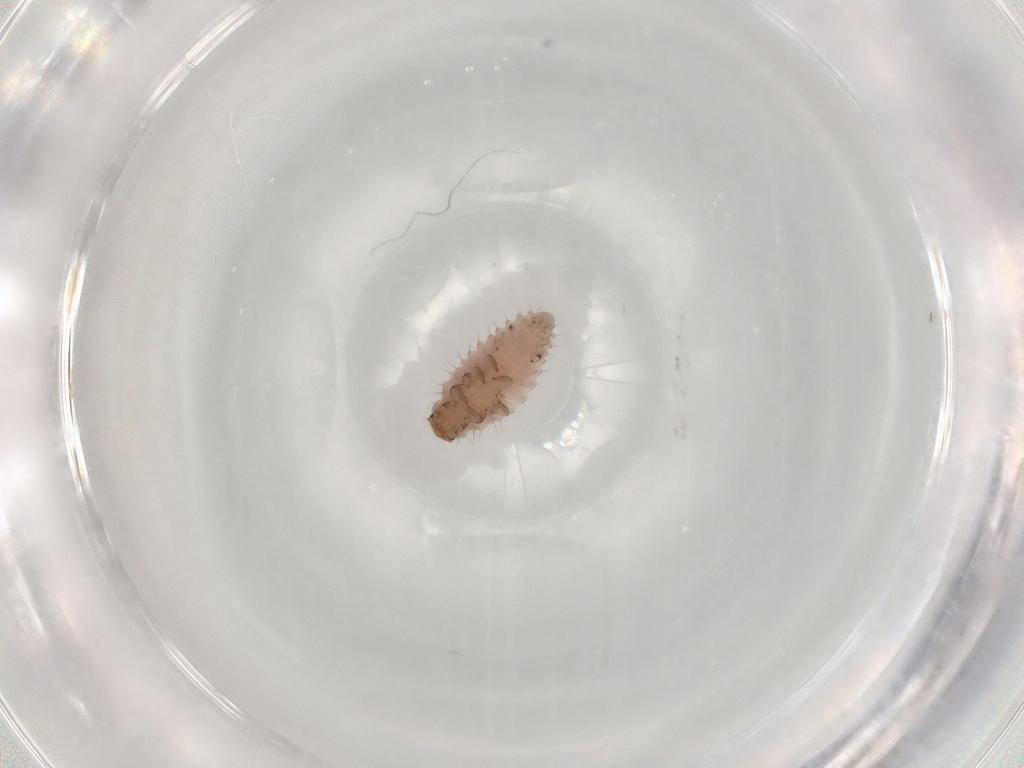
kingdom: Animalia
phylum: Arthropoda
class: Insecta
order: Coleoptera
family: Coccinellidae
